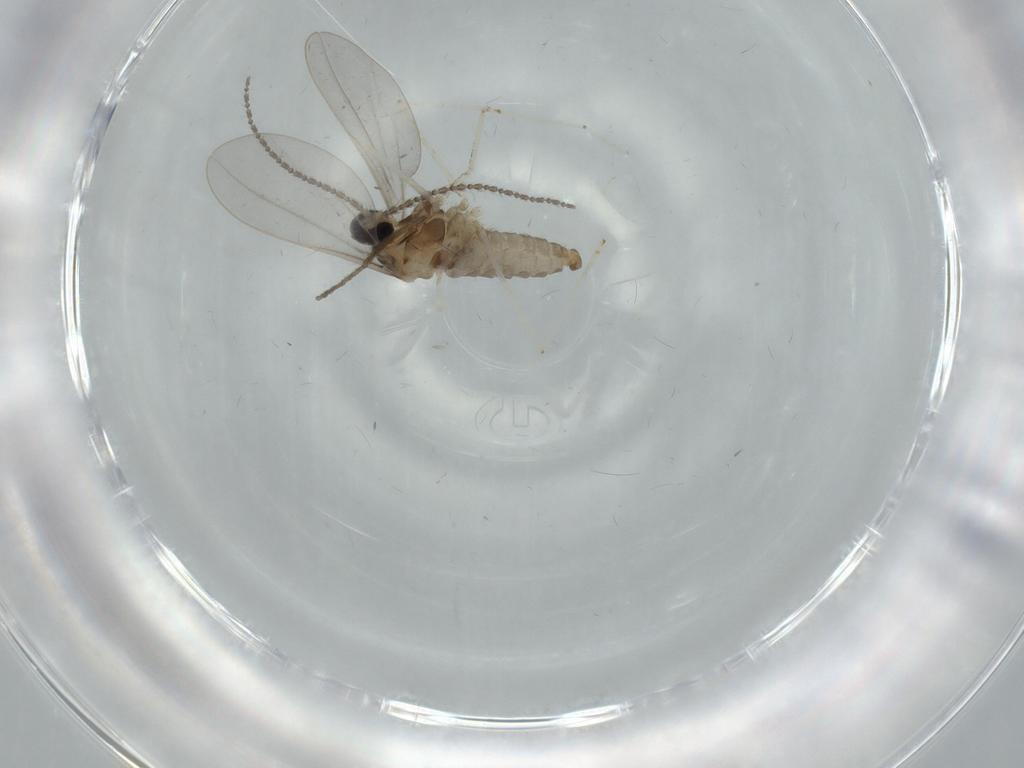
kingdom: Animalia
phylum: Arthropoda
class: Insecta
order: Diptera
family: Cecidomyiidae
